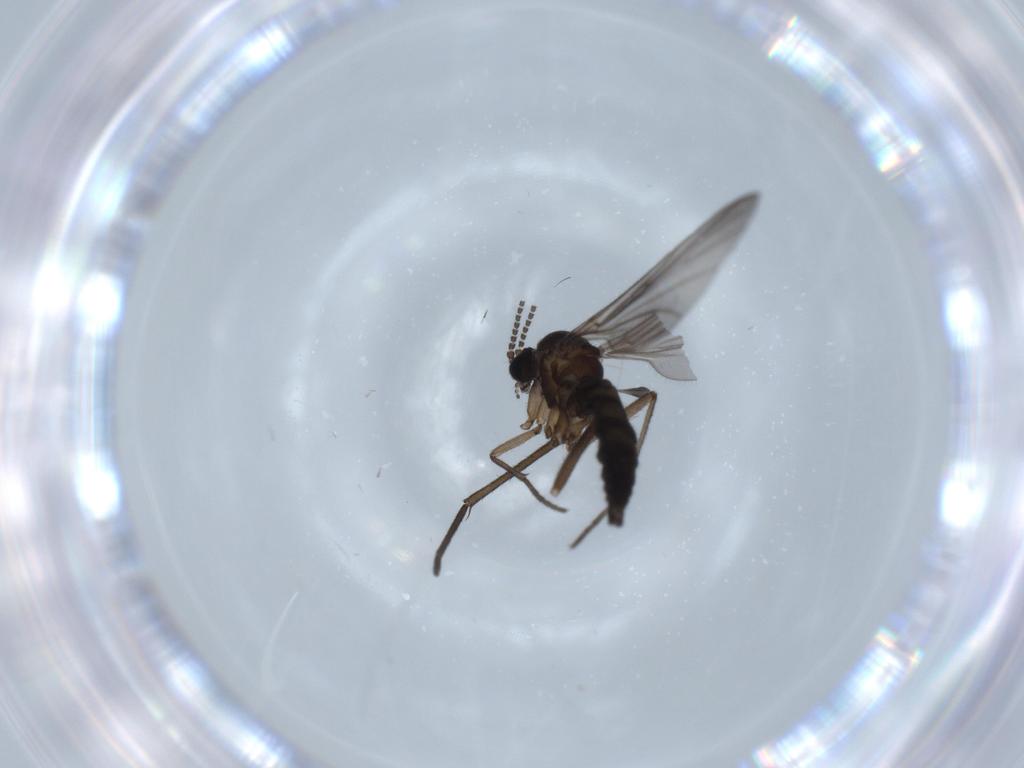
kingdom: Animalia
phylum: Arthropoda
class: Insecta
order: Diptera
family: Sciaridae
